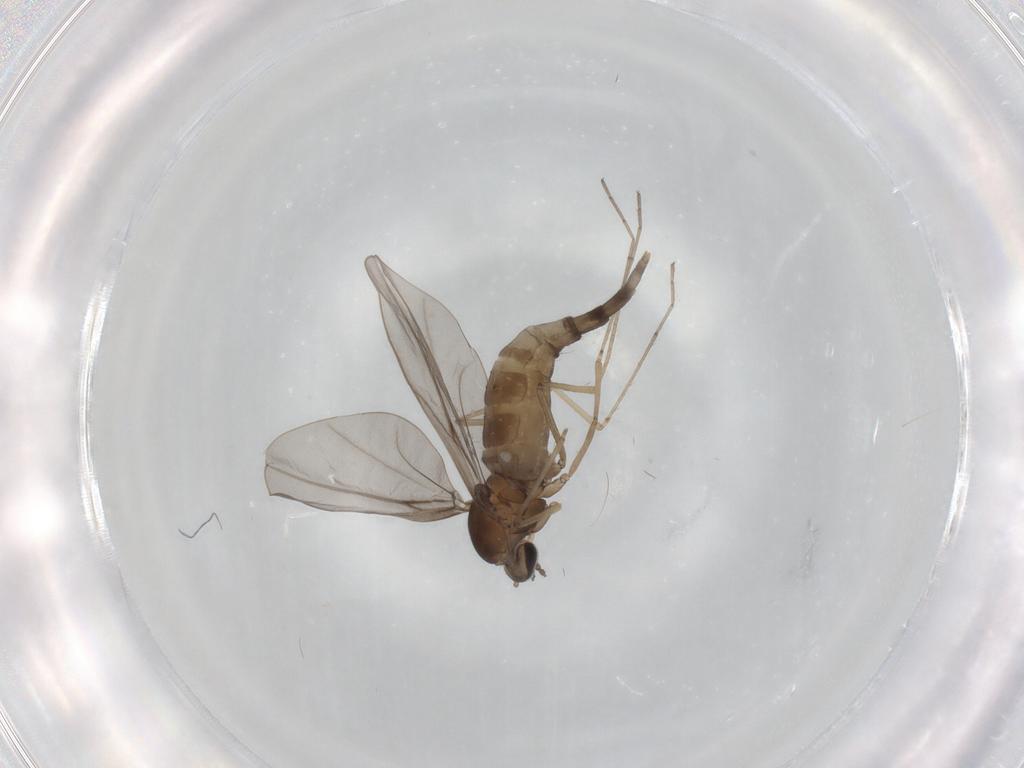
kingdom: Animalia
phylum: Arthropoda
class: Insecta
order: Diptera
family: Cecidomyiidae
